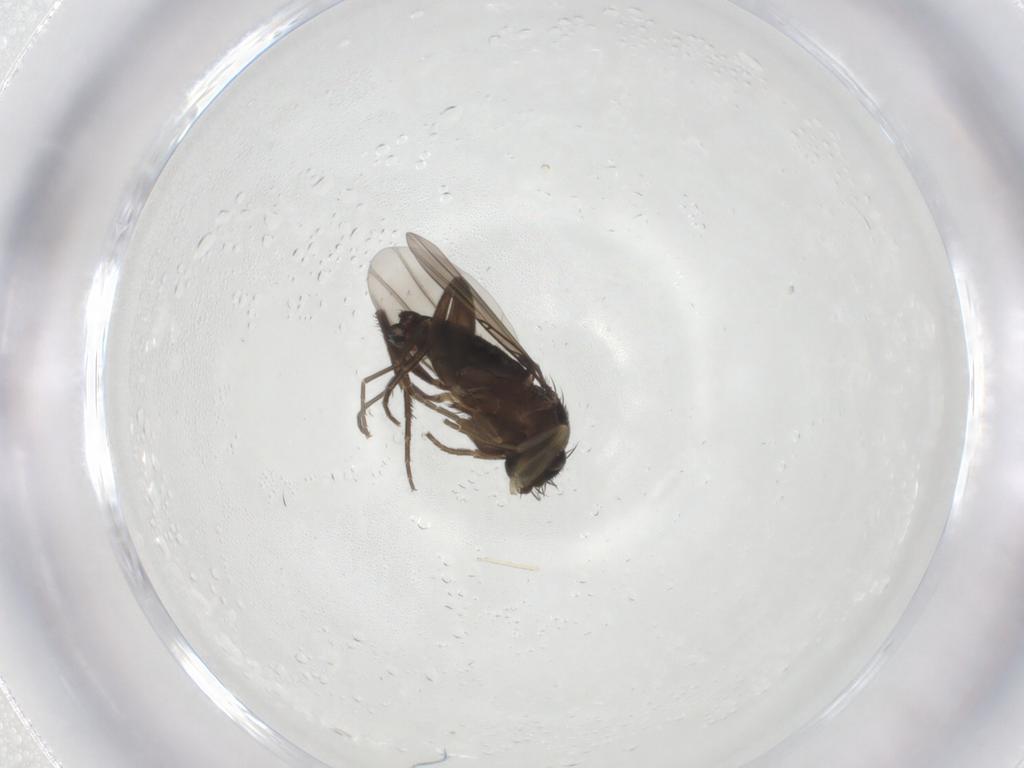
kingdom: Animalia
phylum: Arthropoda
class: Insecta
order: Diptera
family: Phoridae
